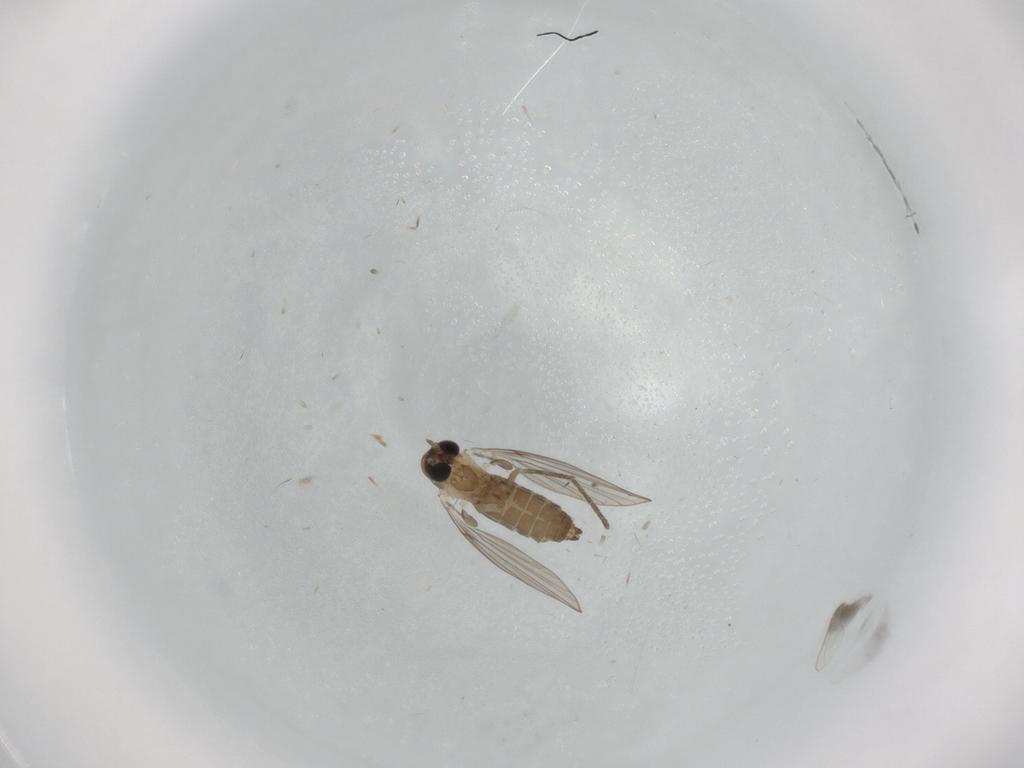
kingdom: Animalia
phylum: Arthropoda
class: Insecta
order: Diptera
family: Psychodidae
